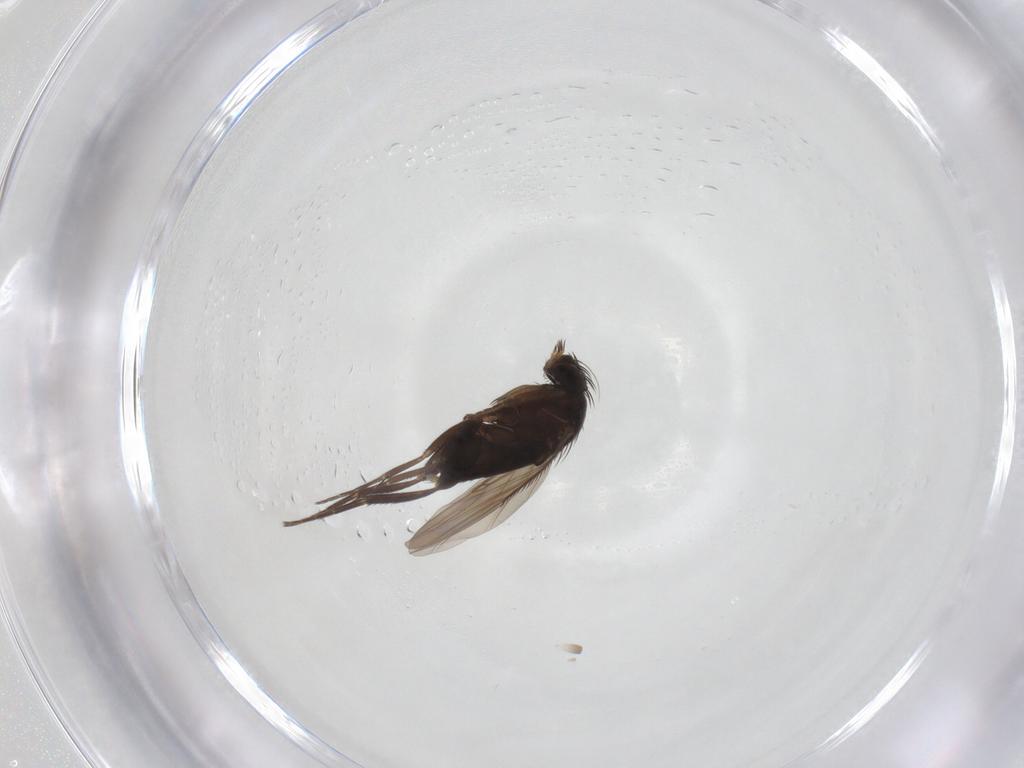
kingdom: Animalia
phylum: Arthropoda
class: Insecta
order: Diptera
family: Phoridae
